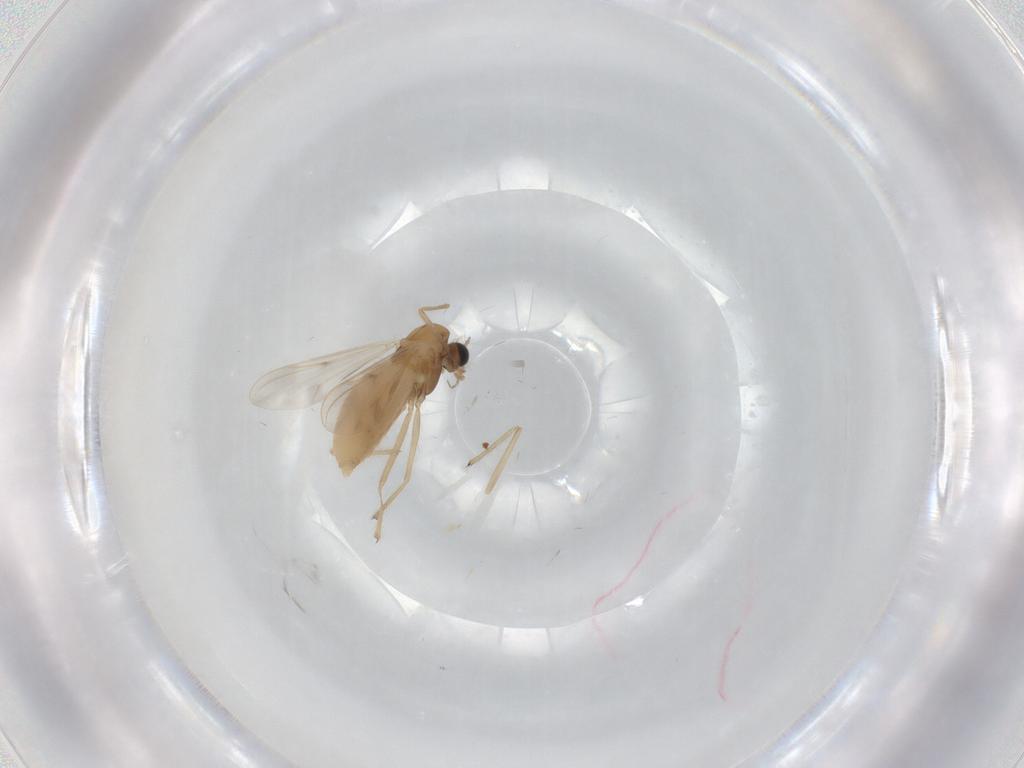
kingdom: Animalia
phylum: Arthropoda
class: Insecta
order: Diptera
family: Chironomidae
